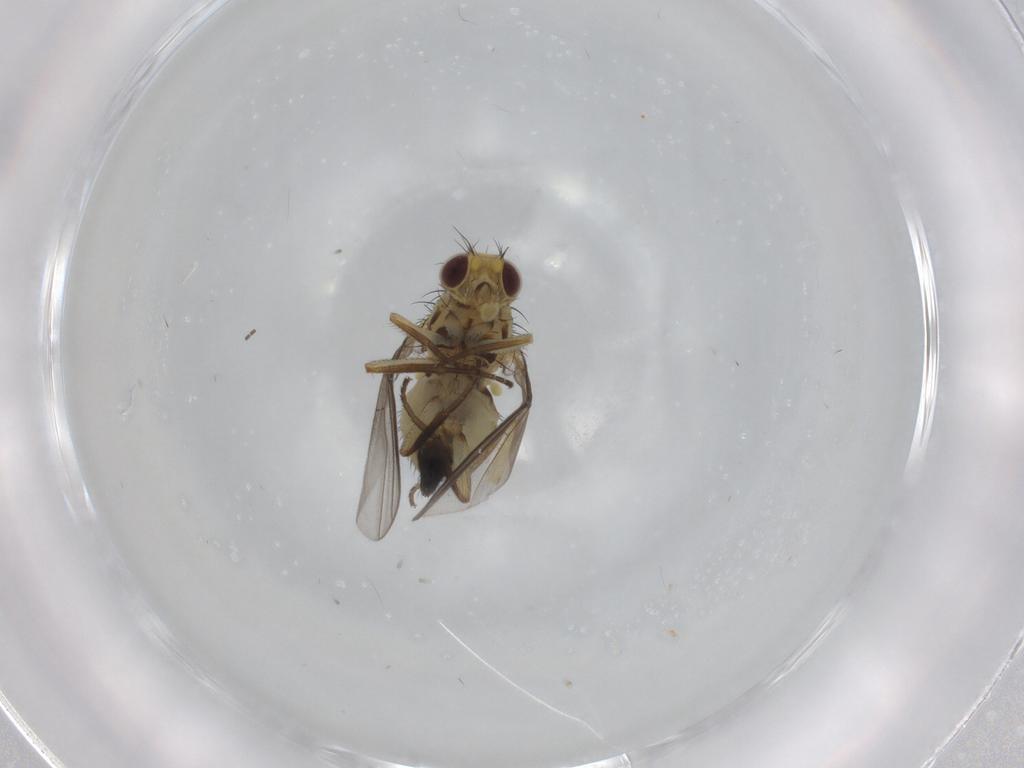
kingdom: Animalia
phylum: Arthropoda
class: Insecta
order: Diptera
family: Agromyzidae
